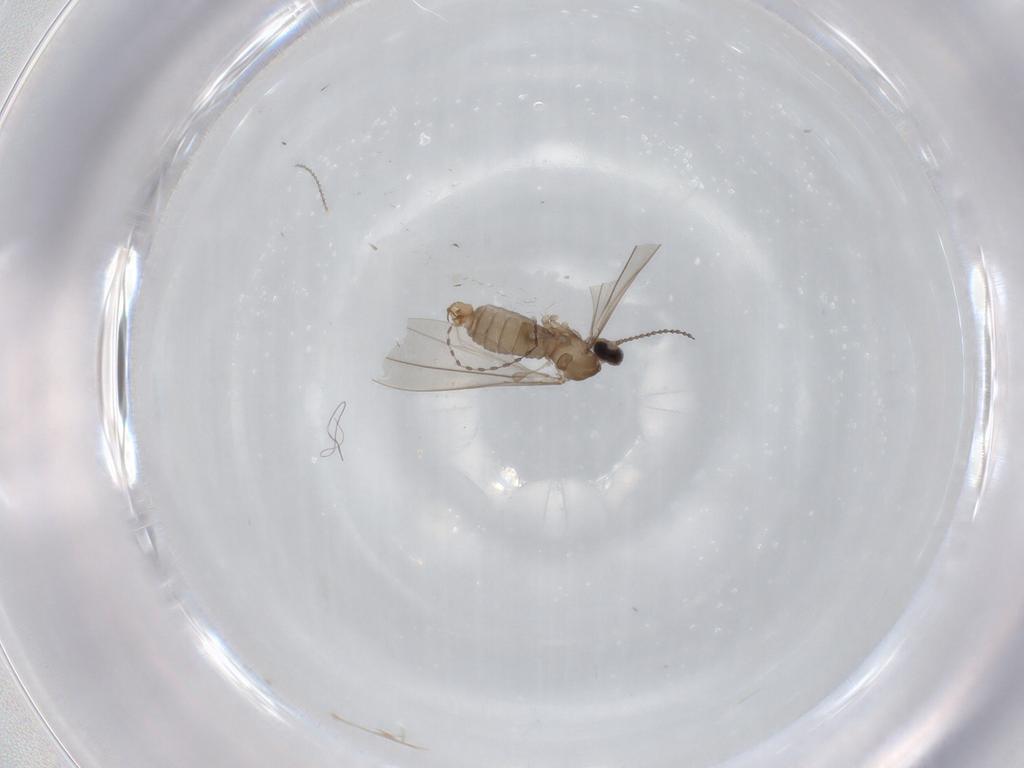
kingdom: Animalia
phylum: Arthropoda
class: Insecta
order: Diptera
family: Cecidomyiidae
